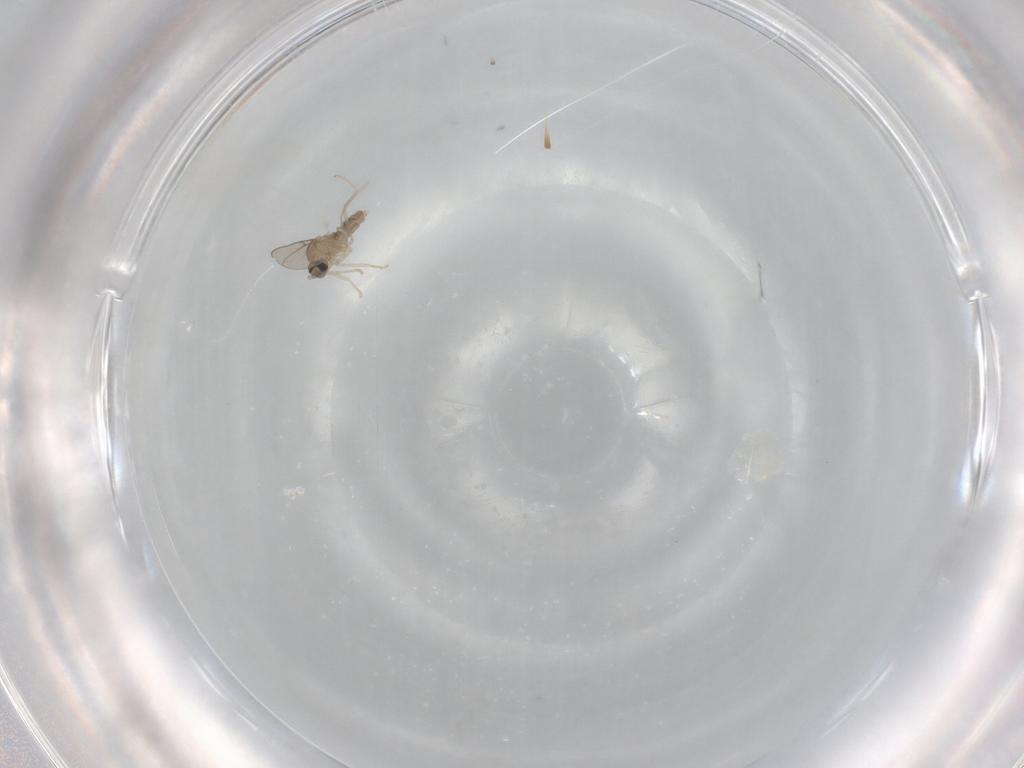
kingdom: Animalia
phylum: Arthropoda
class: Insecta
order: Diptera
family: Cecidomyiidae
